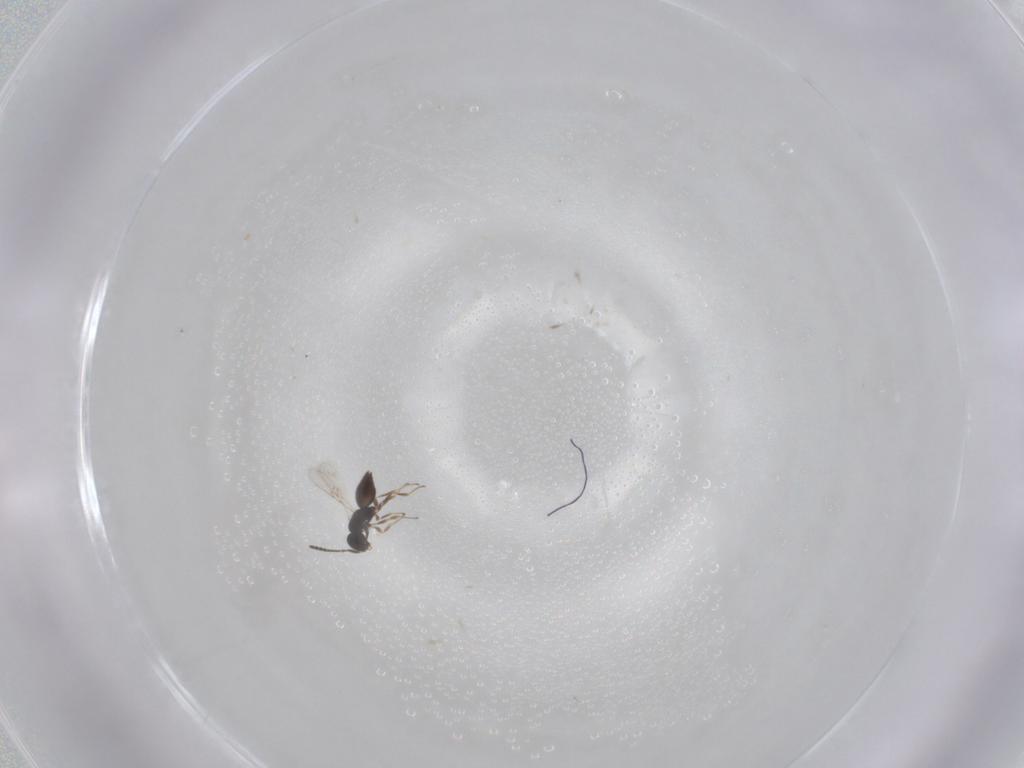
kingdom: Animalia
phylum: Arthropoda
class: Insecta
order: Hymenoptera
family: Scelionidae
